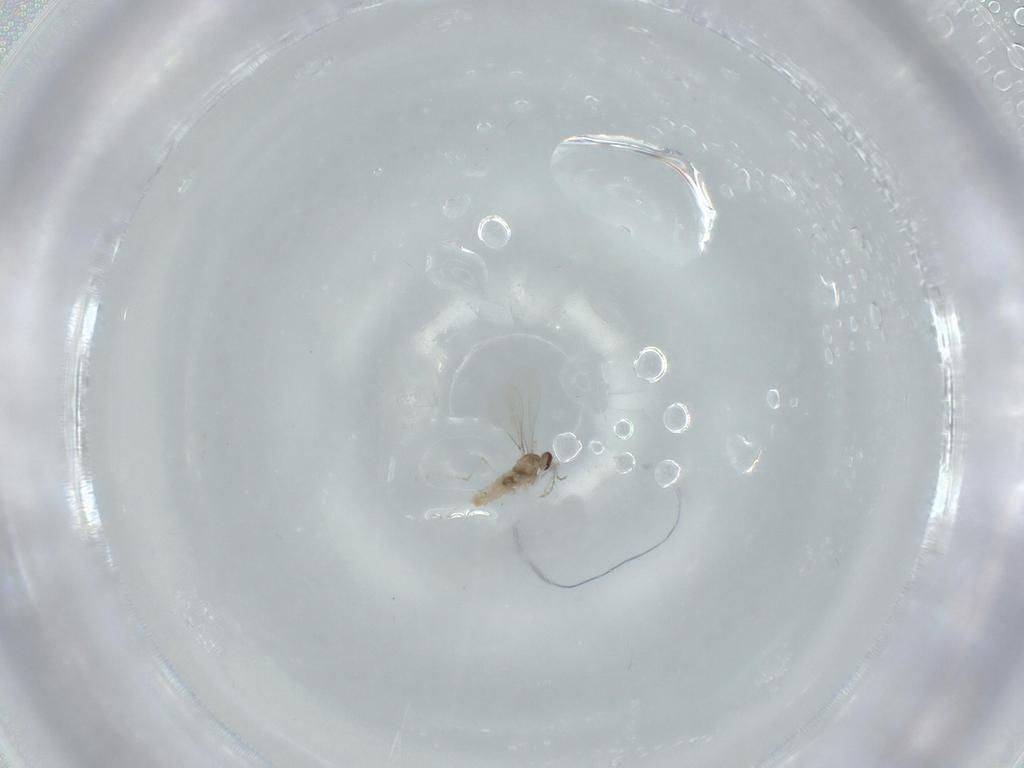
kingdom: Animalia
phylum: Arthropoda
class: Insecta
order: Diptera
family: Cecidomyiidae
